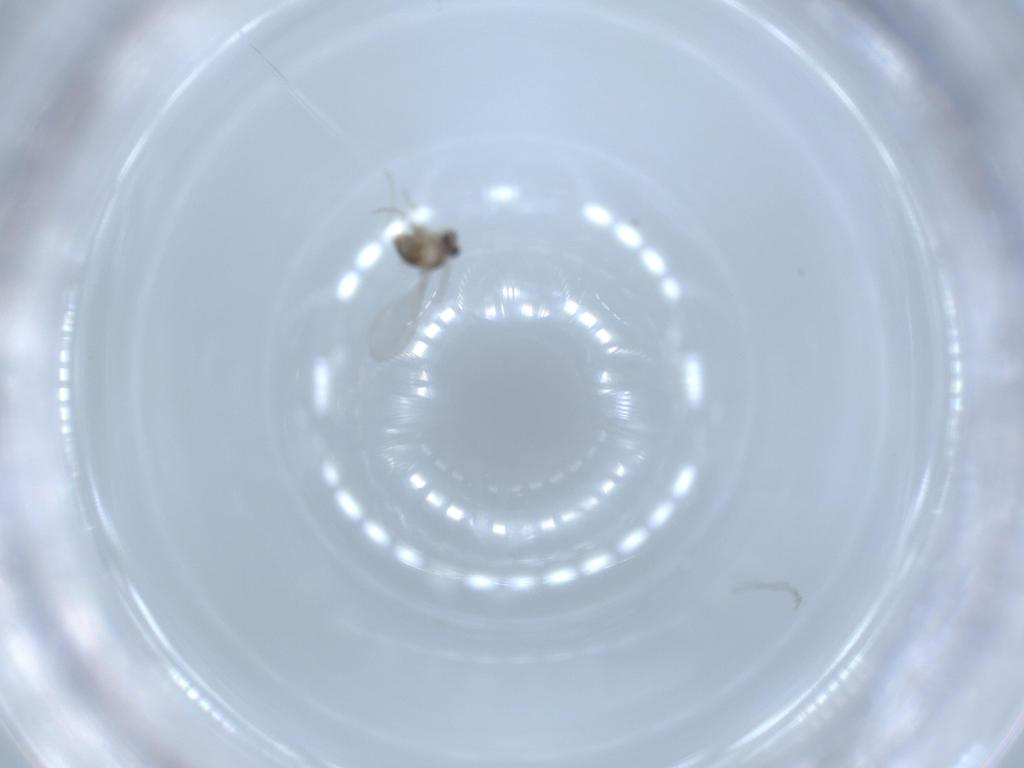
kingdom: Animalia
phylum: Arthropoda
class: Insecta
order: Diptera
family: Cecidomyiidae
